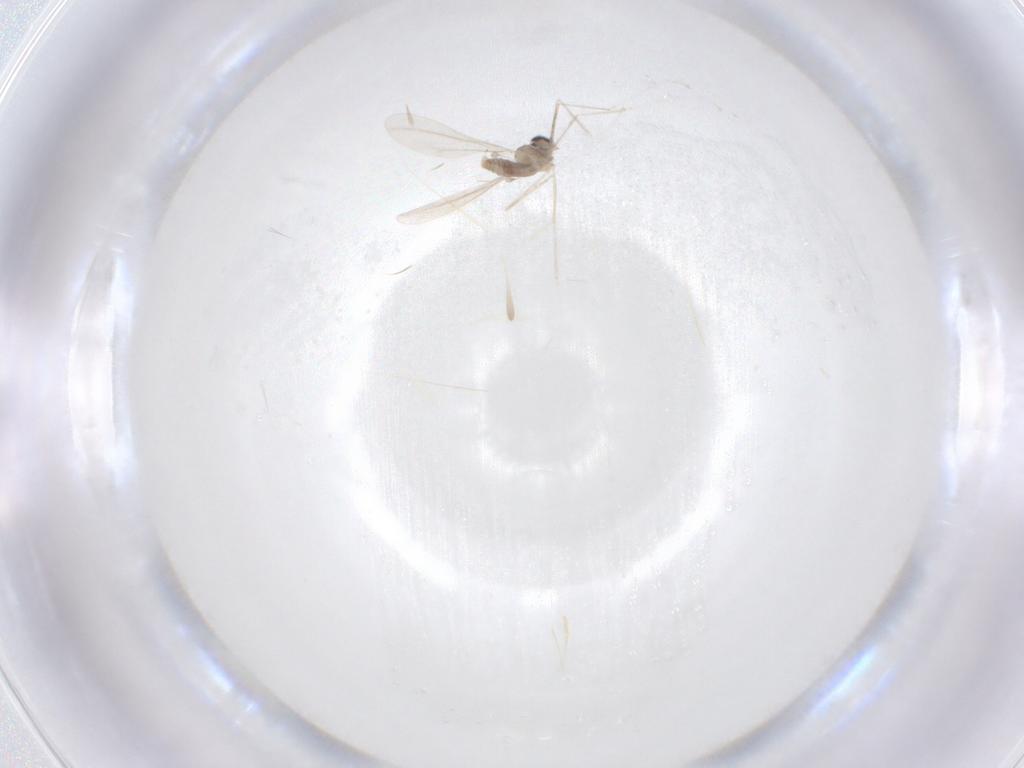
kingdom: Animalia
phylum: Arthropoda
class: Insecta
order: Diptera
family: Cecidomyiidae
